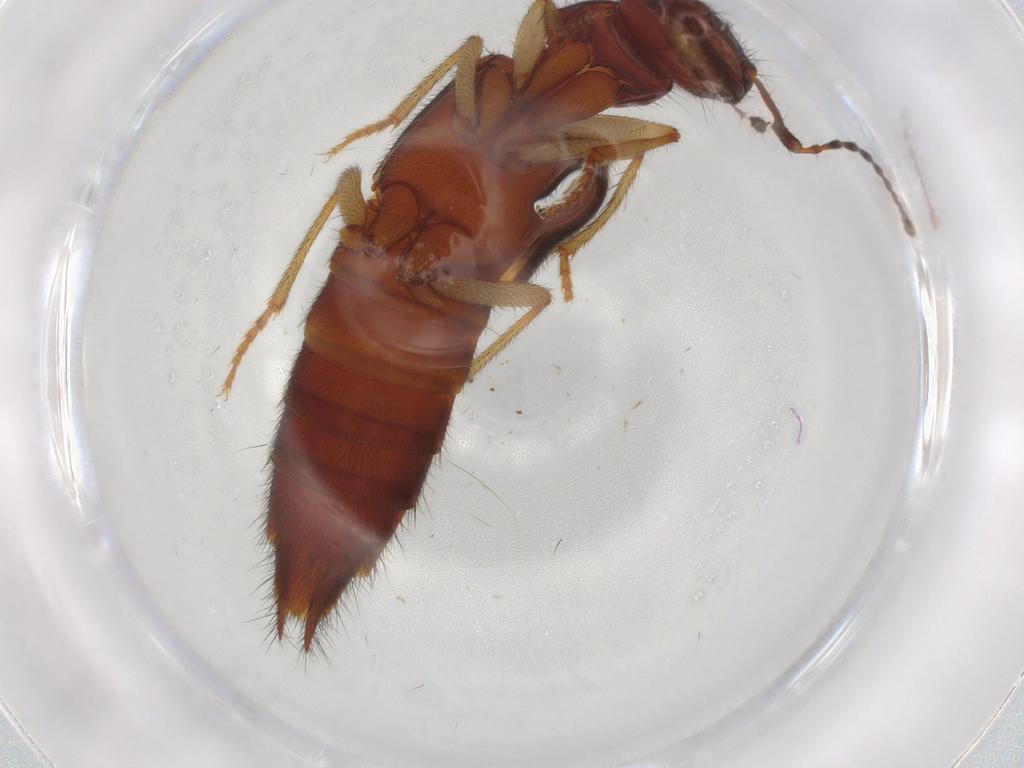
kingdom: Animalia
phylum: Arthropoda
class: Insecta
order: Coleoptera
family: Staphylinidae
